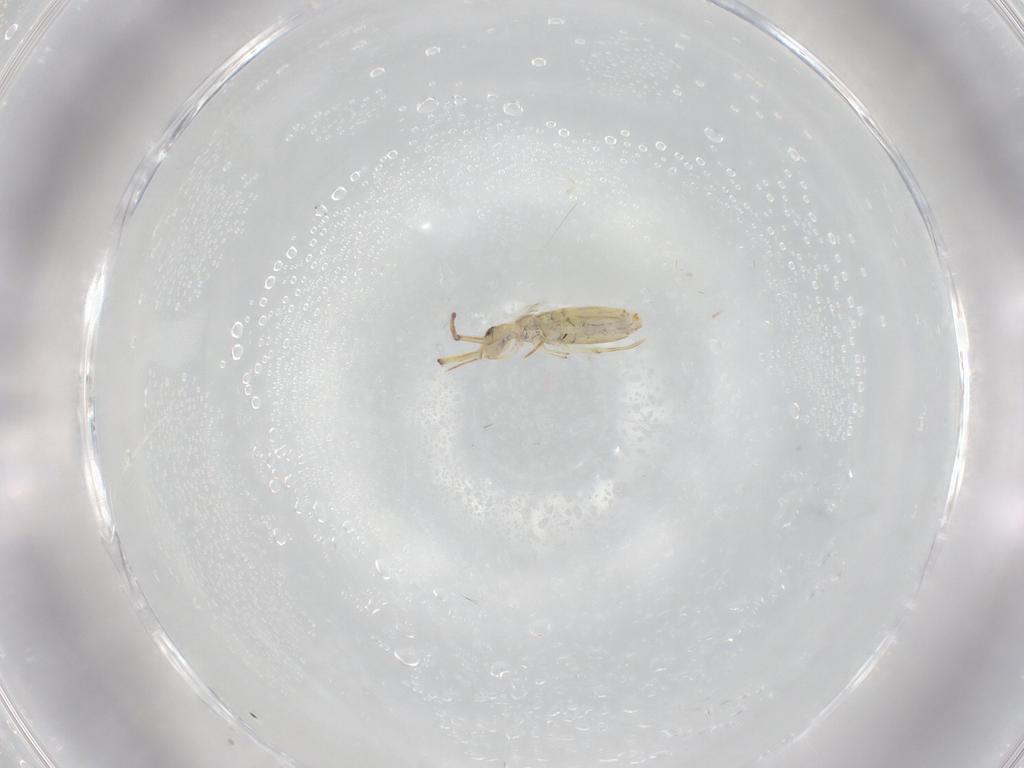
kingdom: Animalia
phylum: Arthropoda
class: Collembola
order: Entomobryomorpha
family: Paronellidae
